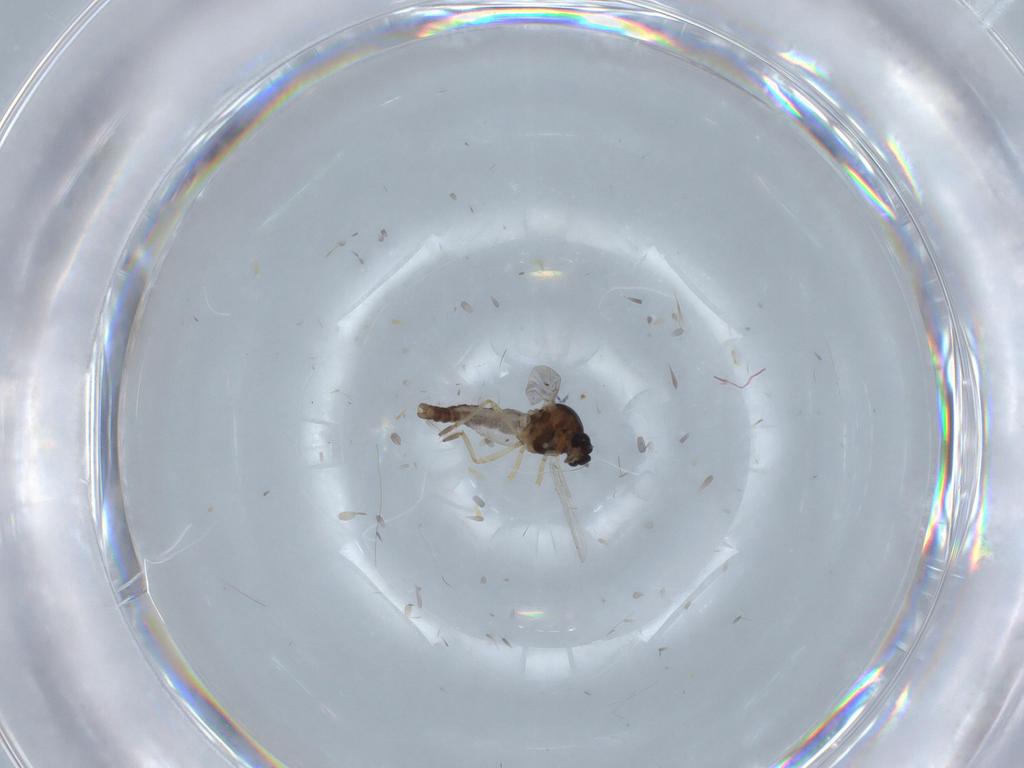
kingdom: Animalia
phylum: Arthropoda
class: Insecta
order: Diptera
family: Ceratopogonidae
